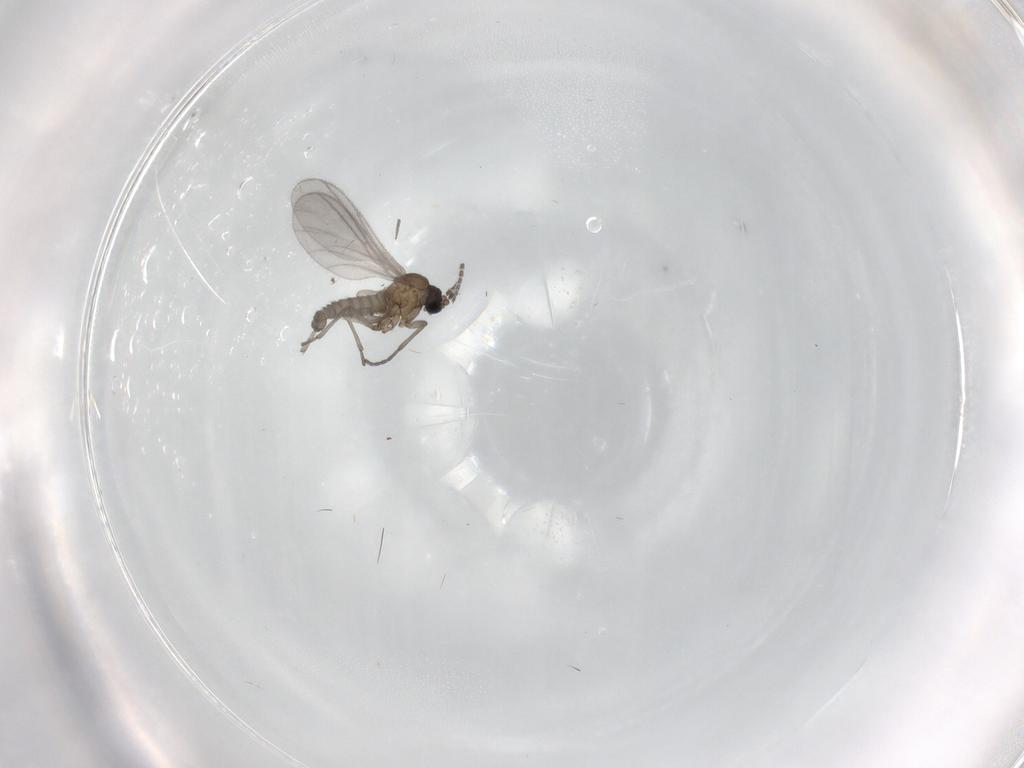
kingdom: Animalia
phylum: Arthropoda
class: Insecta
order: Diptera
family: Sciaridae
